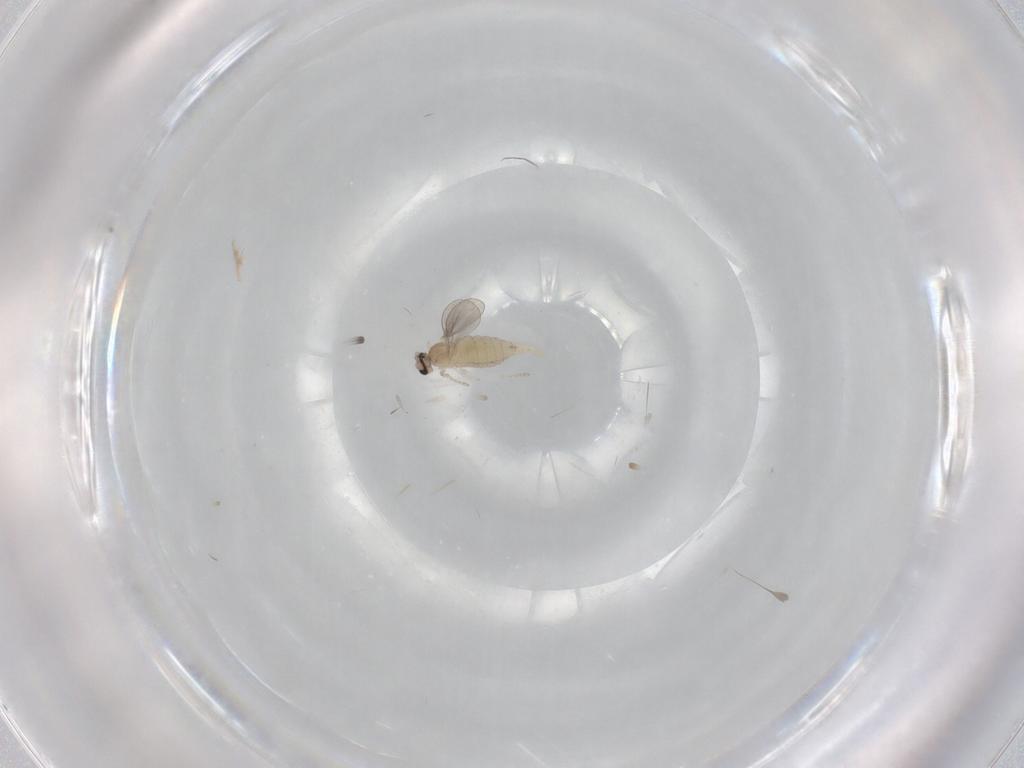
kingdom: Animalia
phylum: Arthropoda
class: Insecta
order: Diptera
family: Cecidomyiidae
